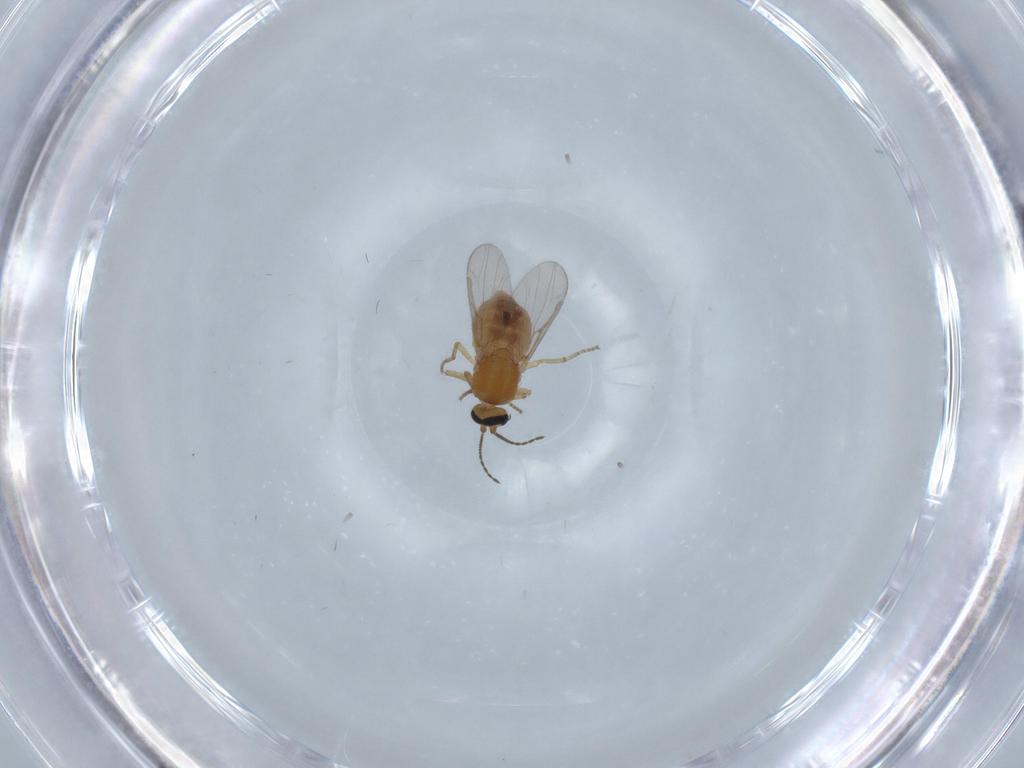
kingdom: Animalia
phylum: Arthropoda
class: Insecta
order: Diptera
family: Ceratopogonidae
